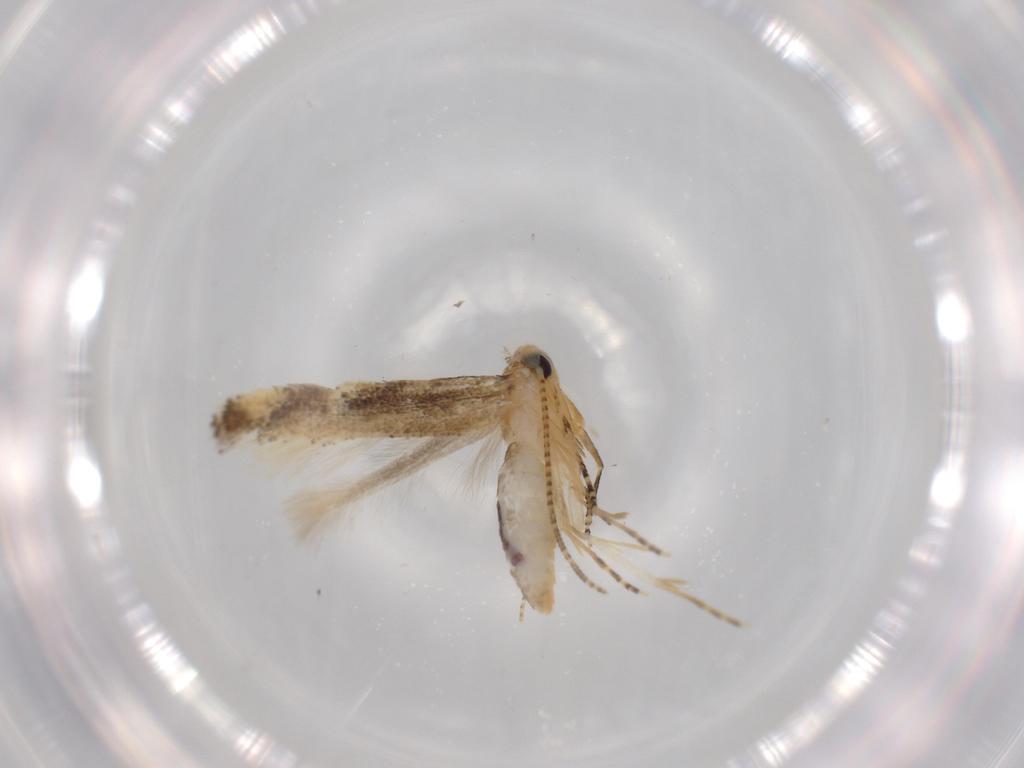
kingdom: Animalia
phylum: Arthropoda
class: Insecta
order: Lepidoptera
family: Bucculatricidae
